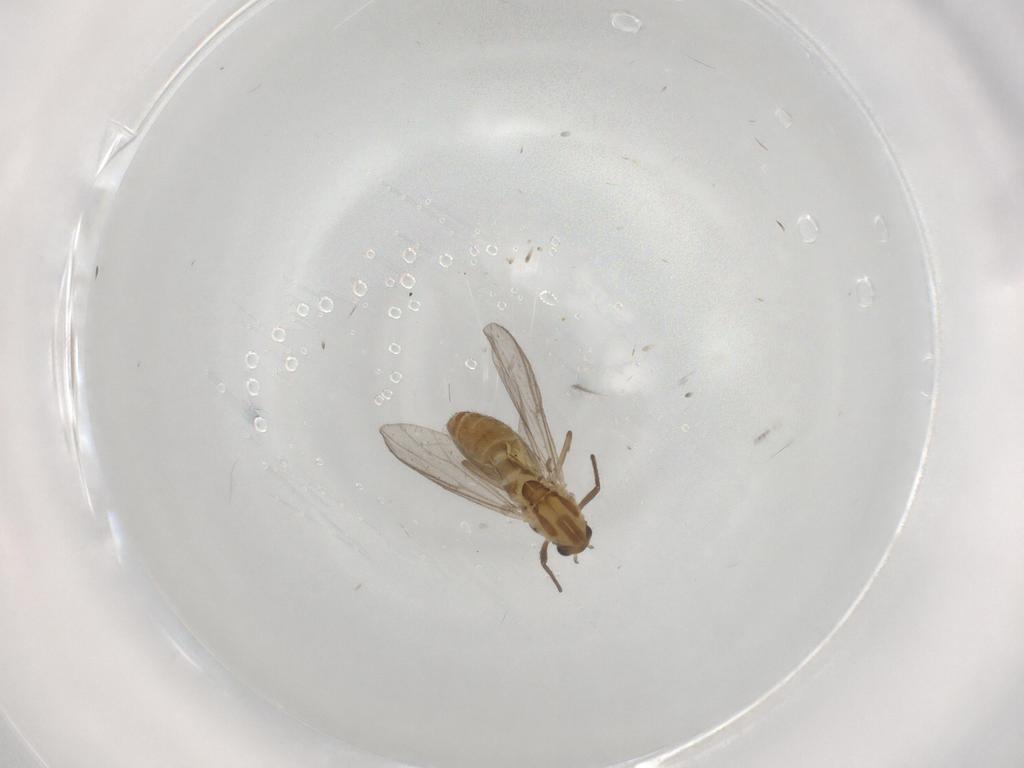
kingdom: Animalia
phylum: Arthropoda
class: Insecta
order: Diptera
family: Chironomidae
